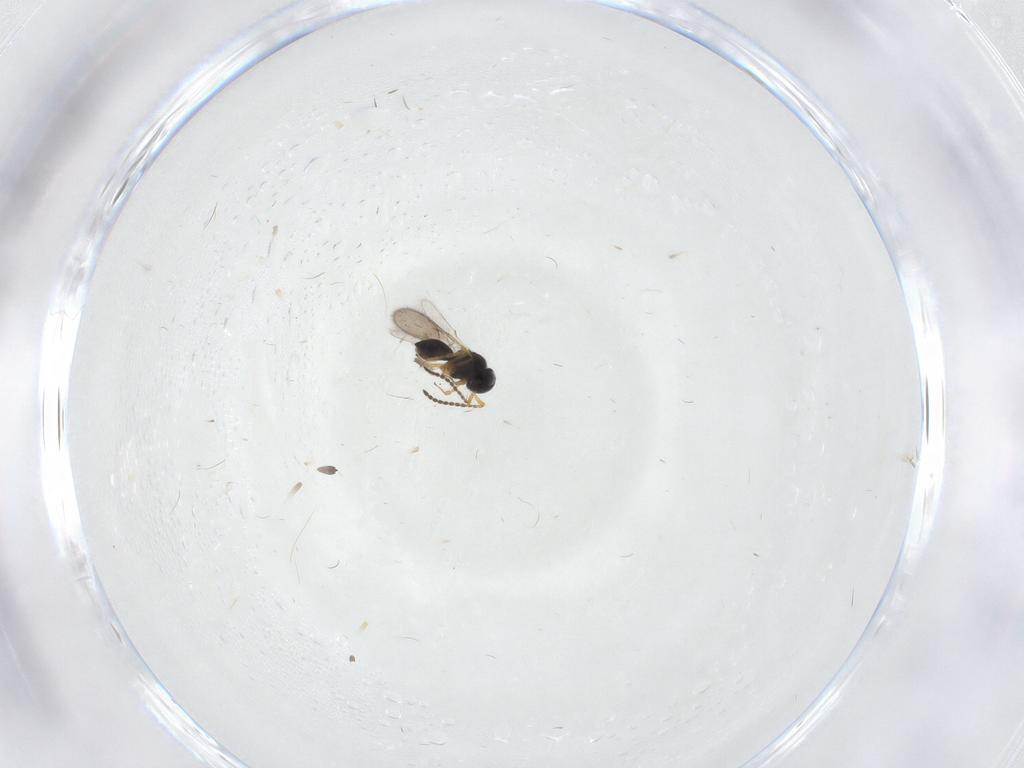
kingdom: Animalia
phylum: Arthropoda
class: Insecta
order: Hymenoptera
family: Scelionidae
